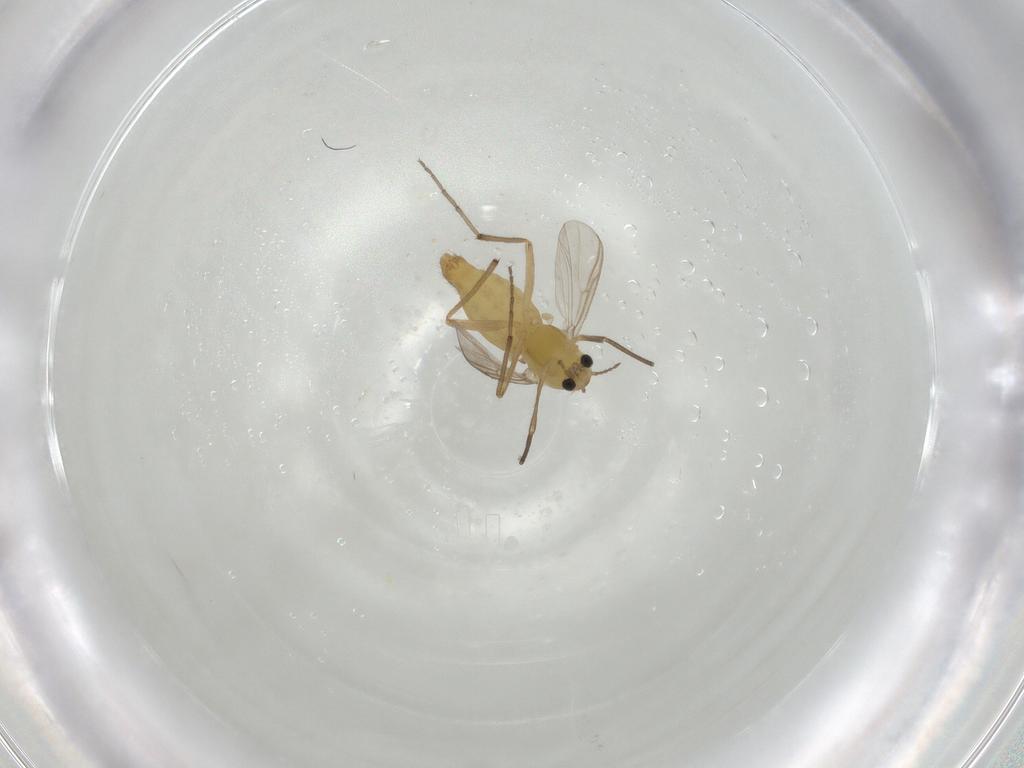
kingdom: Animalia
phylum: Arthropoda
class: Insecta
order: Diptera
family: Chironomidae
